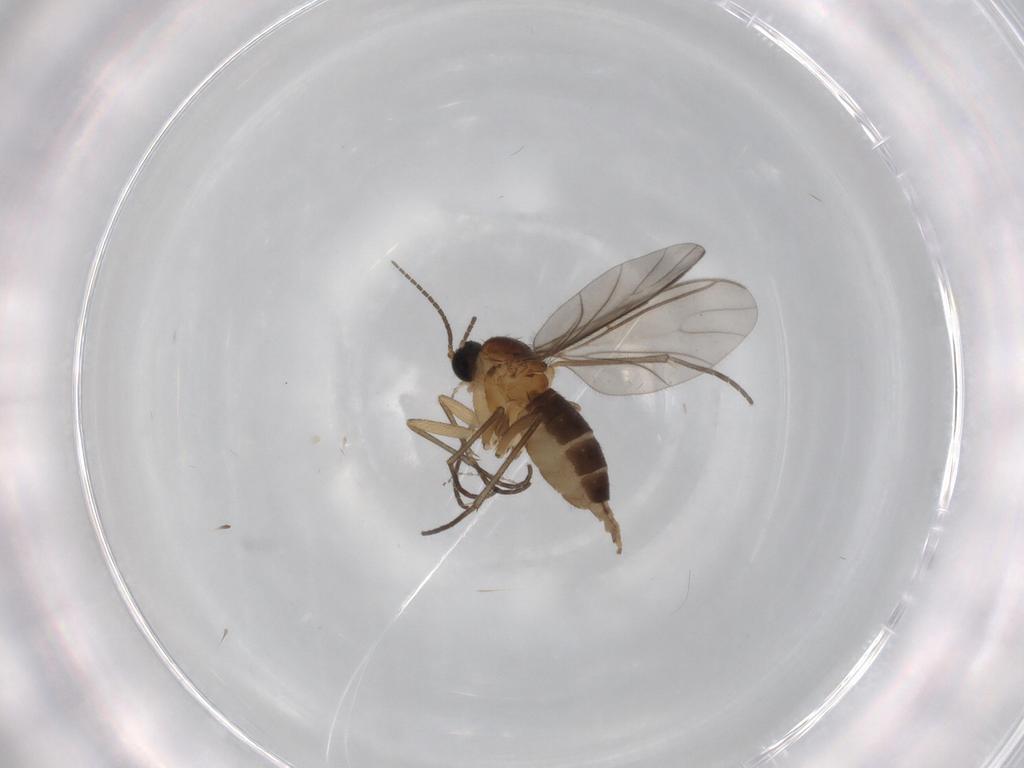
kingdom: Animalia
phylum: Arthropoda
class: Insecta
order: Diptera
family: Sciaridae
